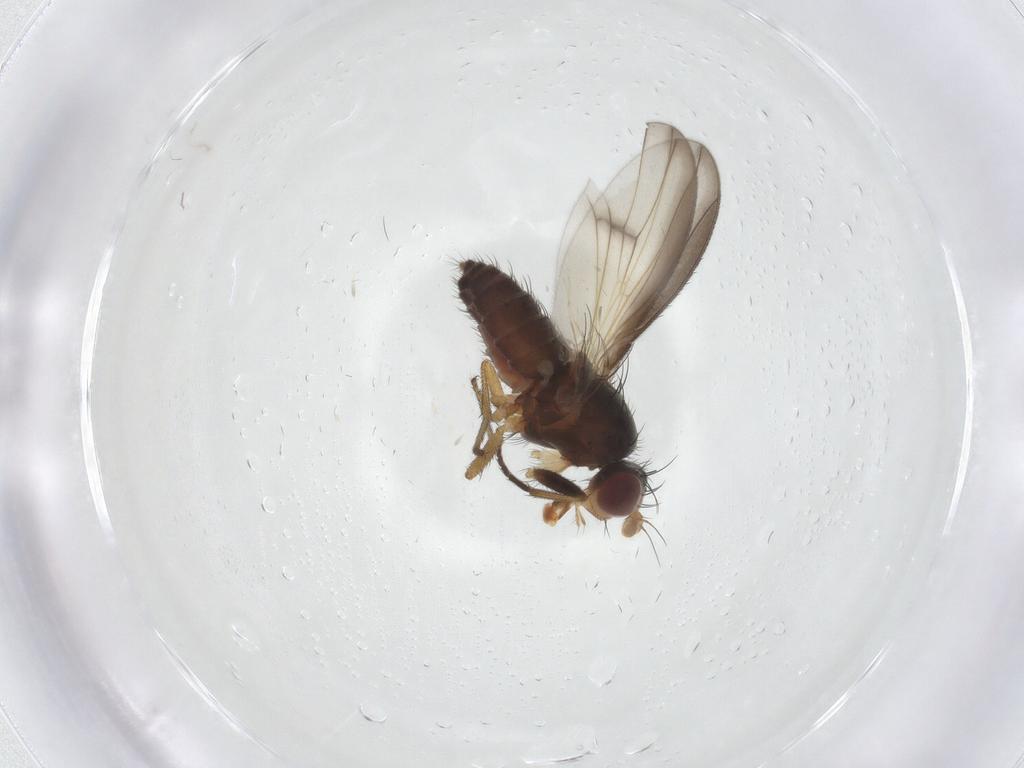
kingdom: Animalia
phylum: Arthropoda
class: Insecta
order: Diptera
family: Heleomyzidae
